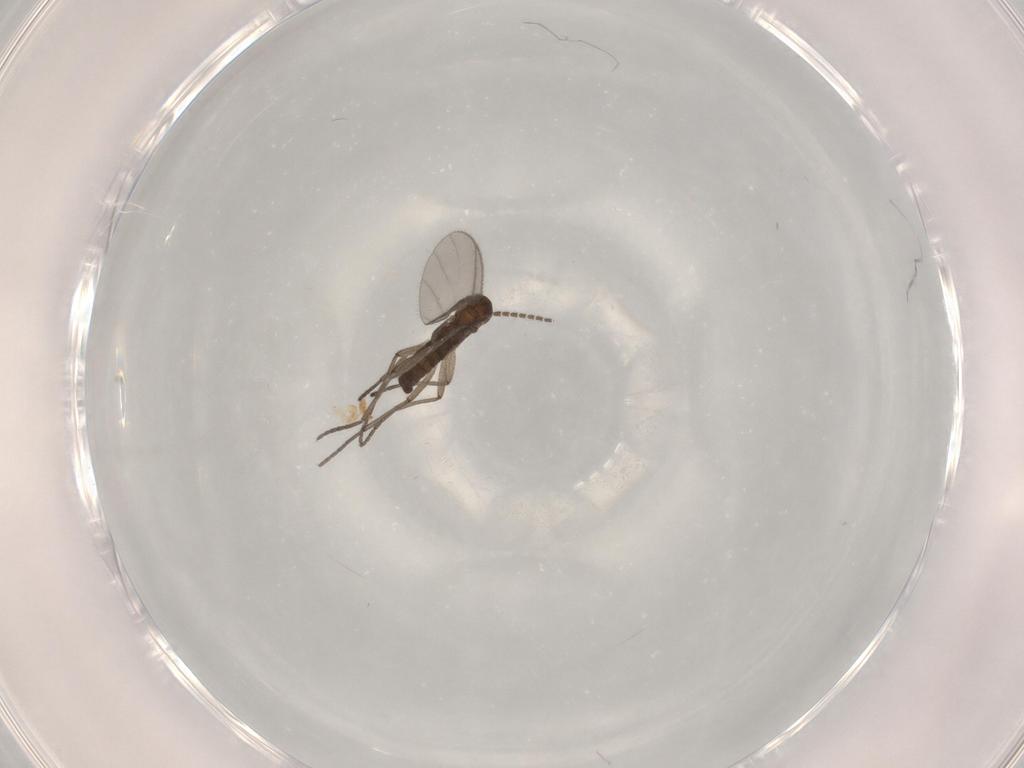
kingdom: Animalia
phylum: Arthropoda
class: Insecta
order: Diptera
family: Sciaridae
